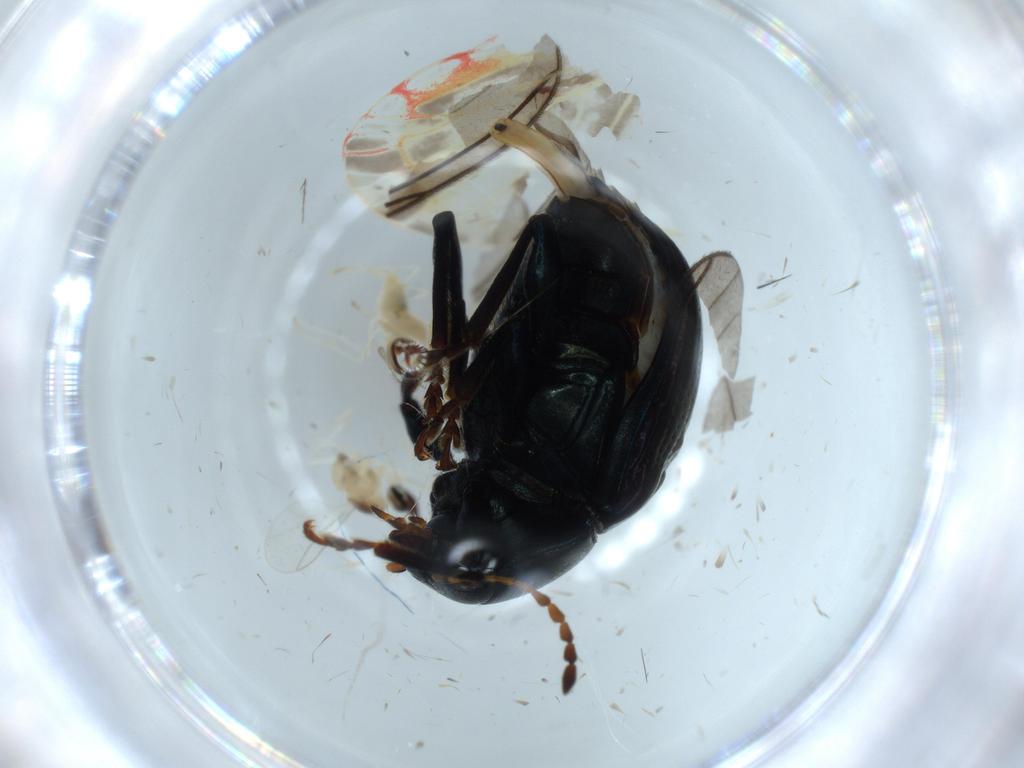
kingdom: Animalia
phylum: Arthropoda
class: Insecta
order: Diptera
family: Cecidomyiidae
